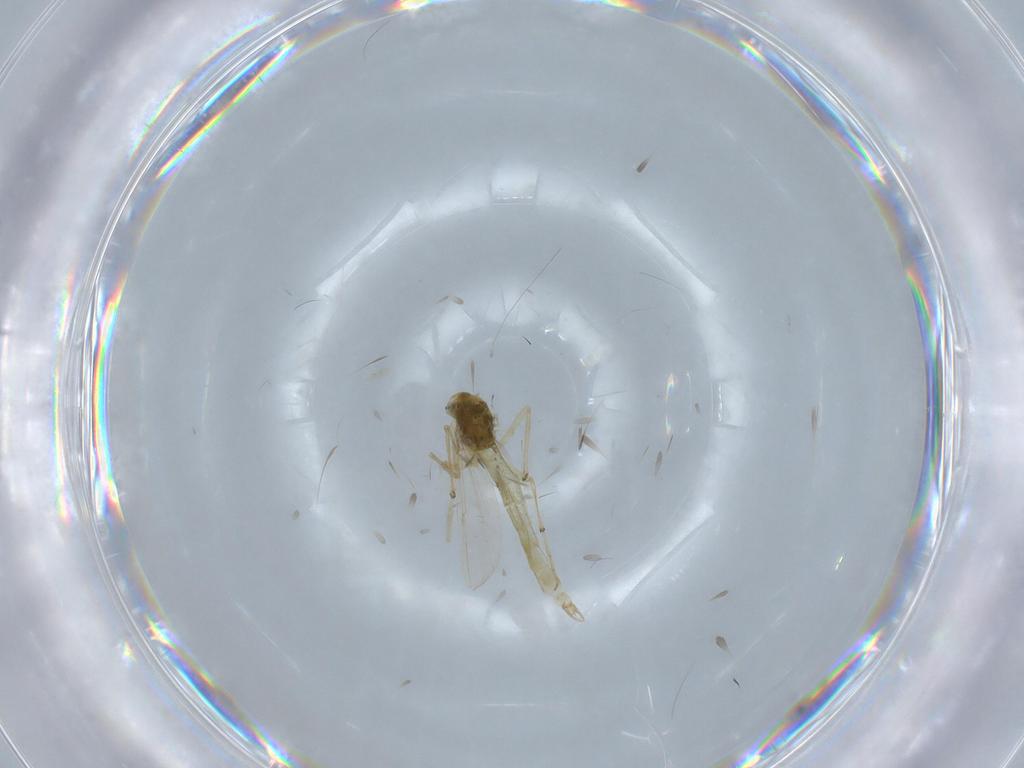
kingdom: Animalia
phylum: Arthropoda
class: Insecta
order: Diptera
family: Chironomidae
